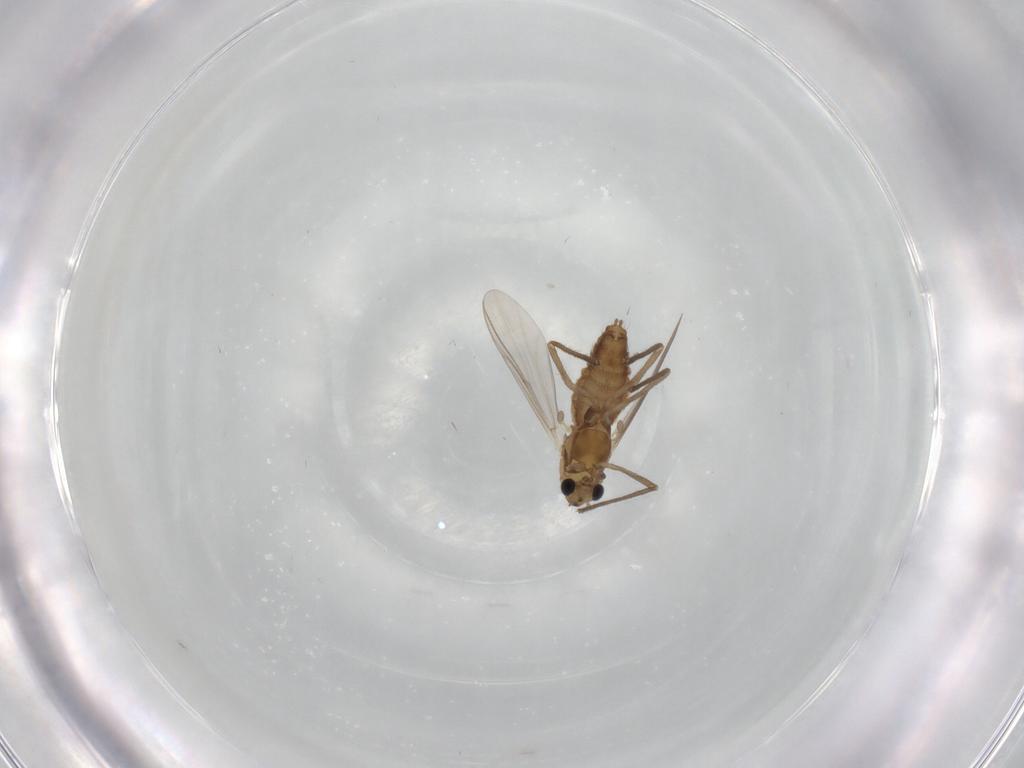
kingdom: Animalia
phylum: Arthropoda
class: Insecta
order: Diptera
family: Chironomidae
